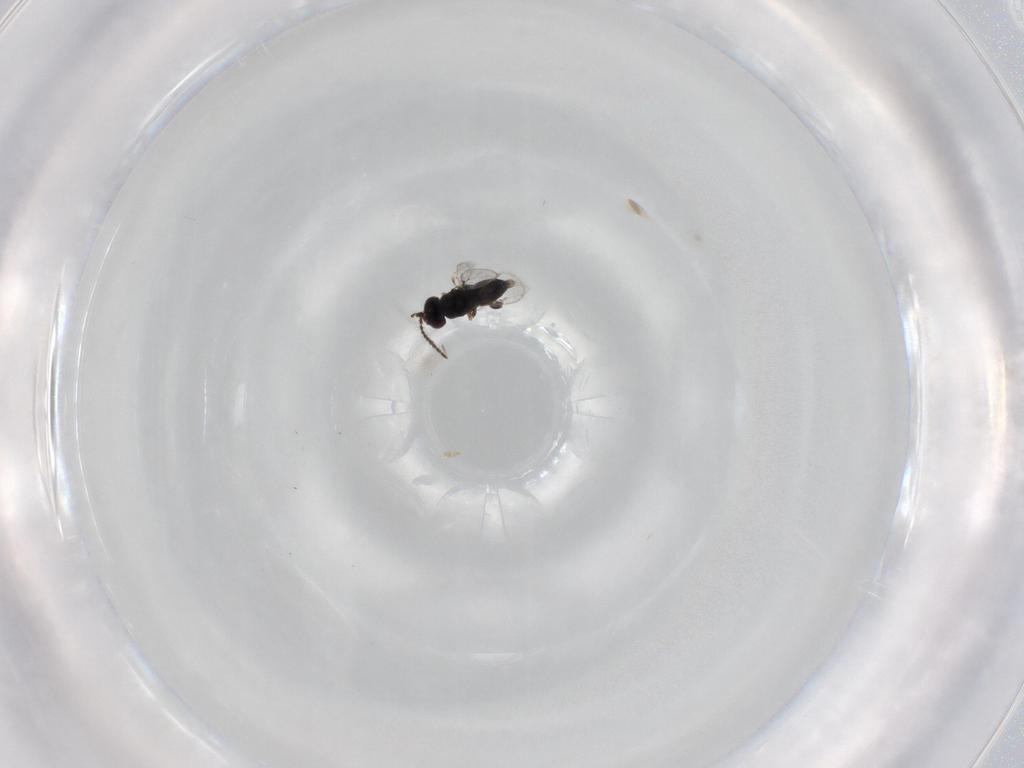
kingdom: Animalia
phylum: Arthropoda
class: Insecta
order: Hymenoptera
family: Ceraphronidae
